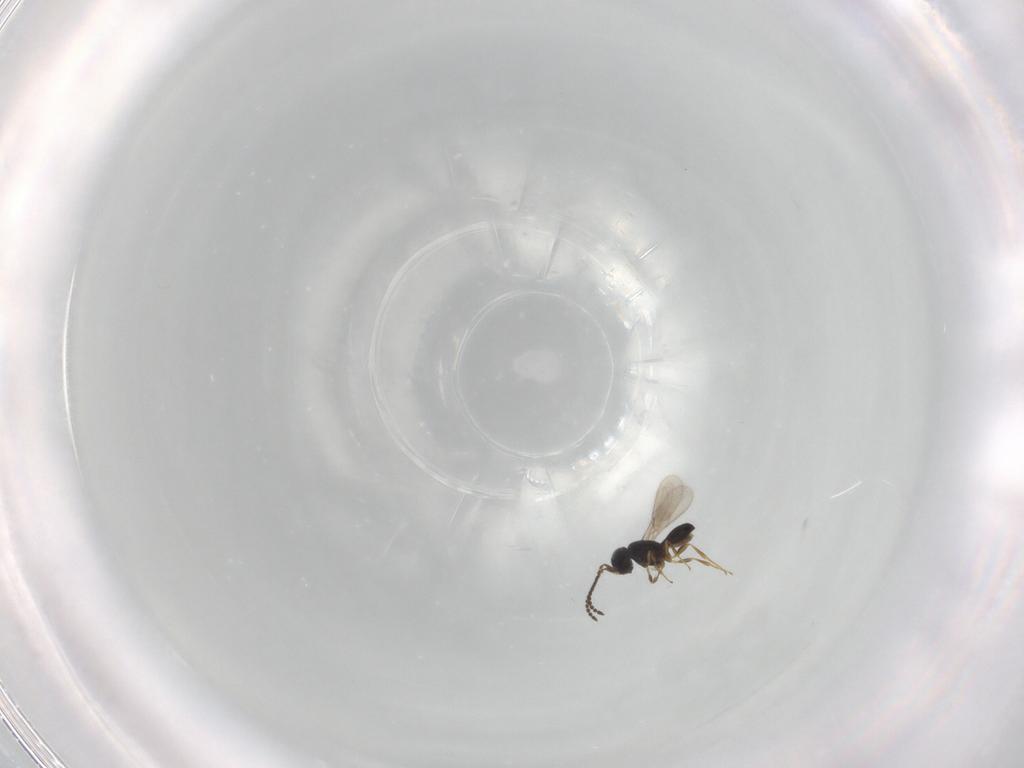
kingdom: Animalia
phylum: Arthropoda
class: Insecta
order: Hymenoptera
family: Scelionidae
